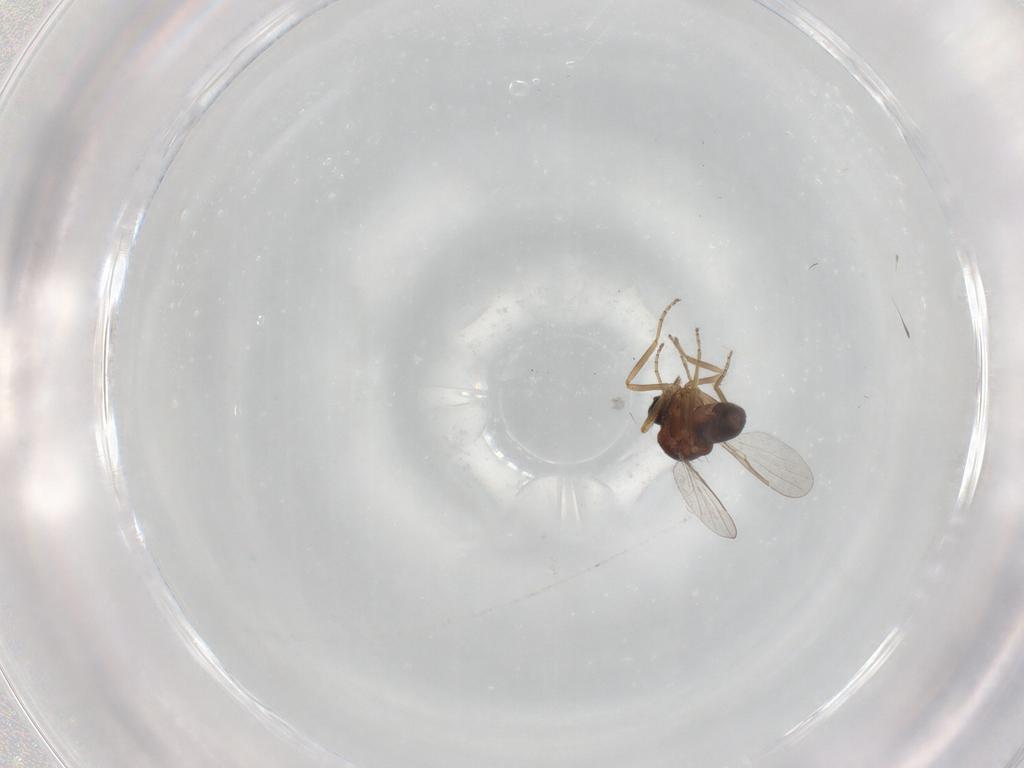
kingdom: Animalia
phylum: Arthropoda
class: Insecta
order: Diptera
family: Ceratopogonidae
